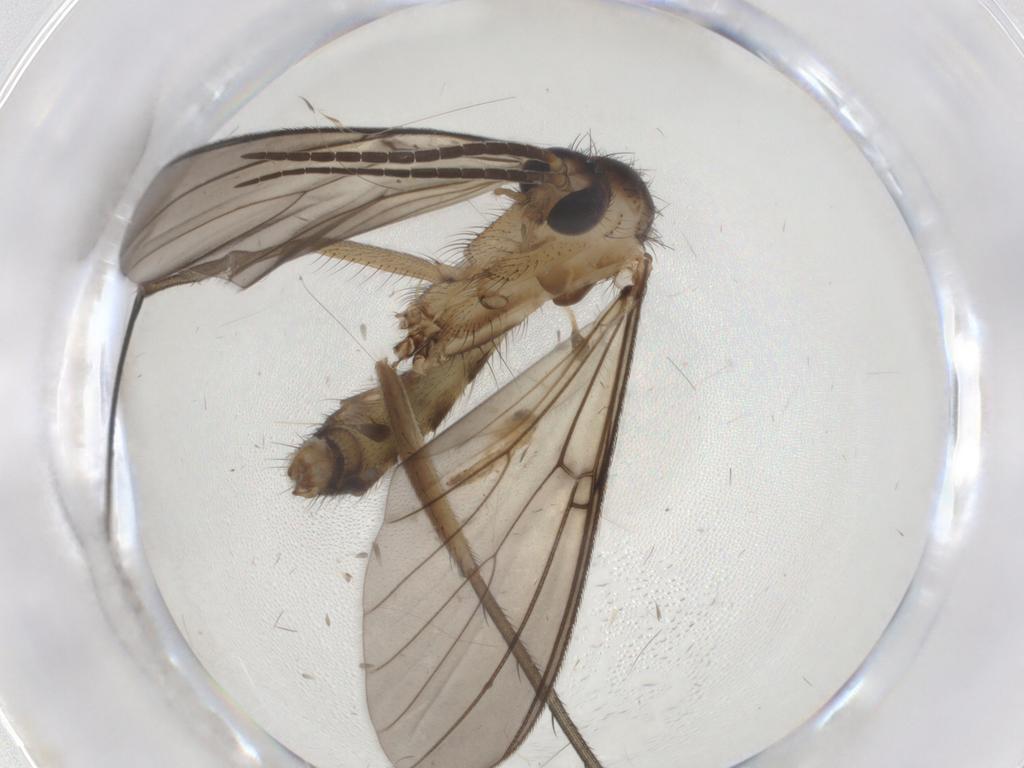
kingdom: Animalia
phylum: Arthropoda
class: Insecta
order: Diptera
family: Mycetophilidae
